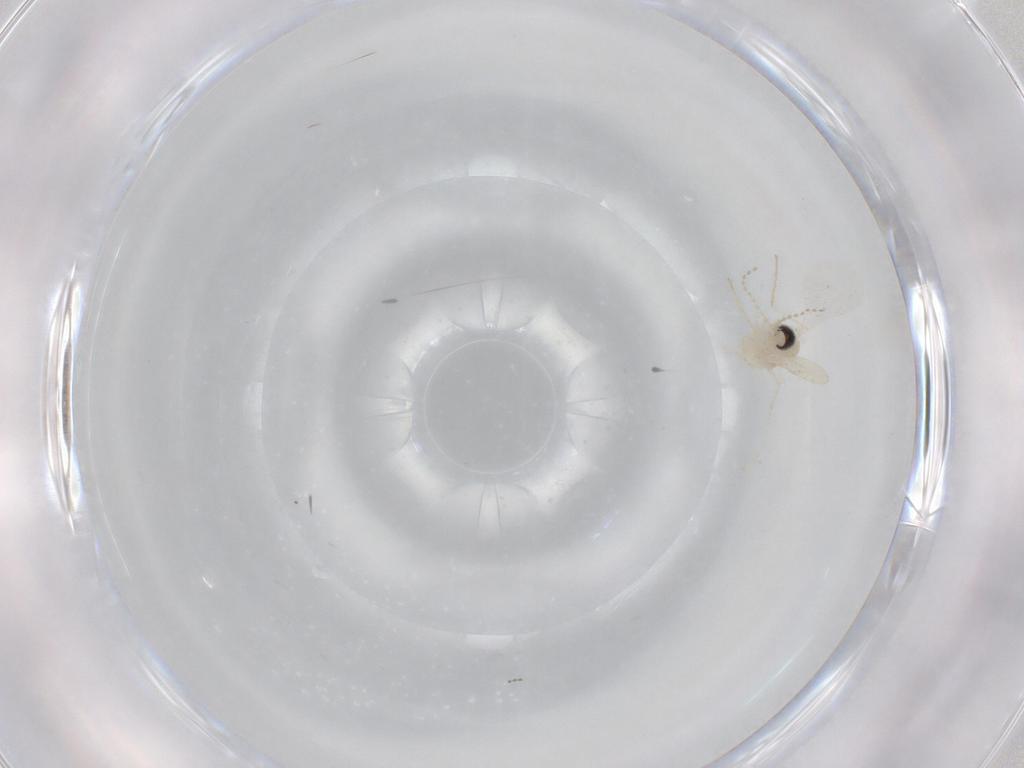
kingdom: Animalia
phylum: Arthropoda
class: Insecta
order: Diptera
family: Cecidomyiidae
